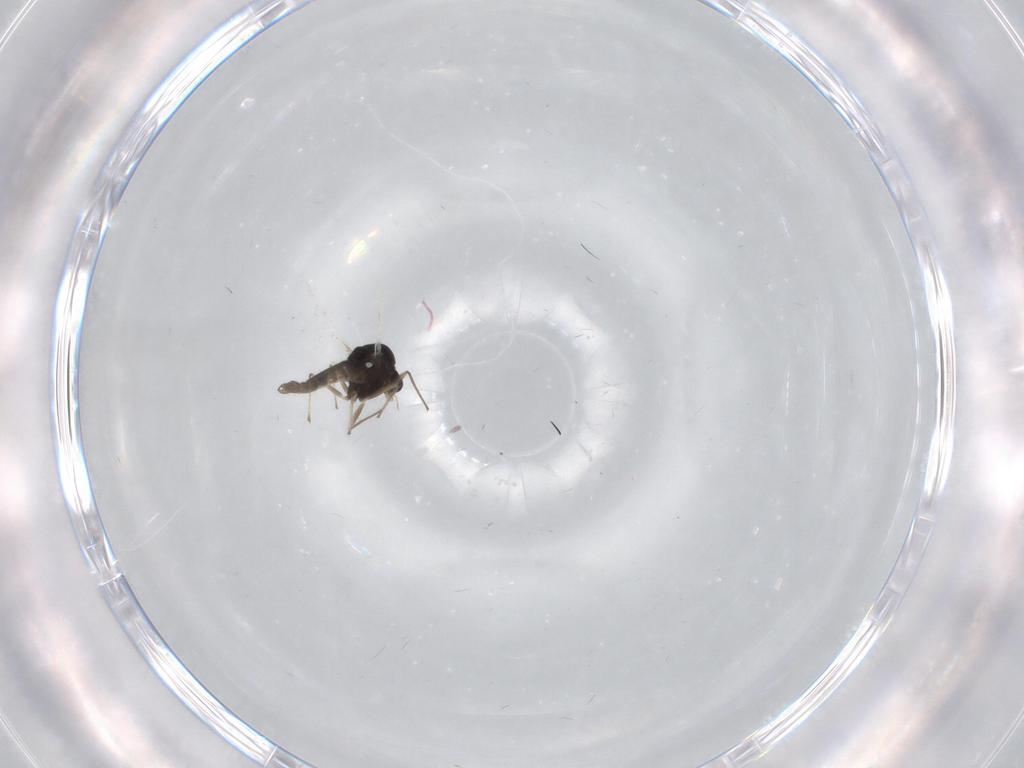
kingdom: Animalia
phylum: Arthropoda
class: Insecta
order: Diptera
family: Chironomidae
